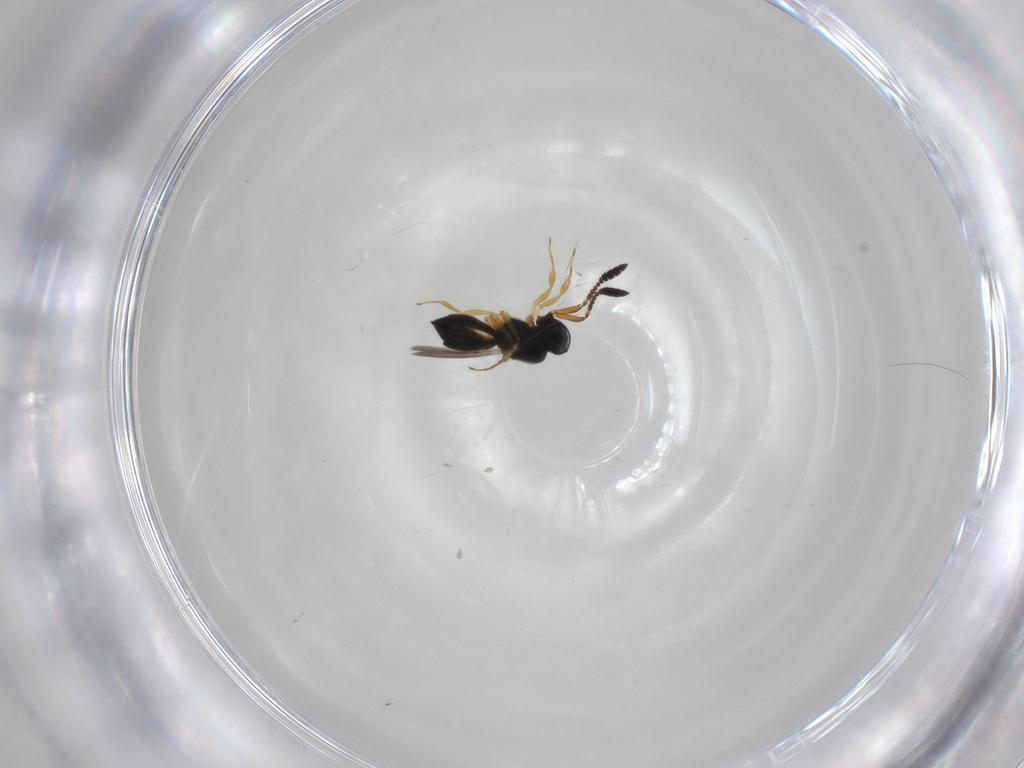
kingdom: Animalia
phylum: Arthropoda
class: Insecta
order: Hymenoptera
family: Scelionidae
